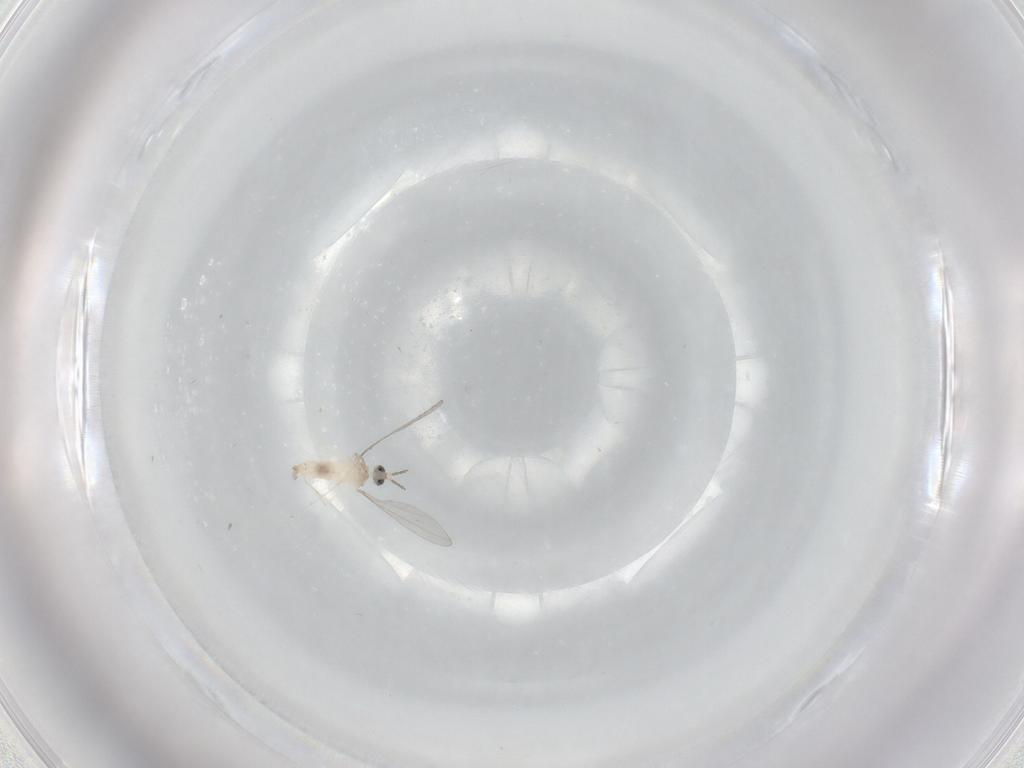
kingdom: Animalia
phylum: Arthropoda
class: Insecta
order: Diptera
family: Cecidomyiidae
